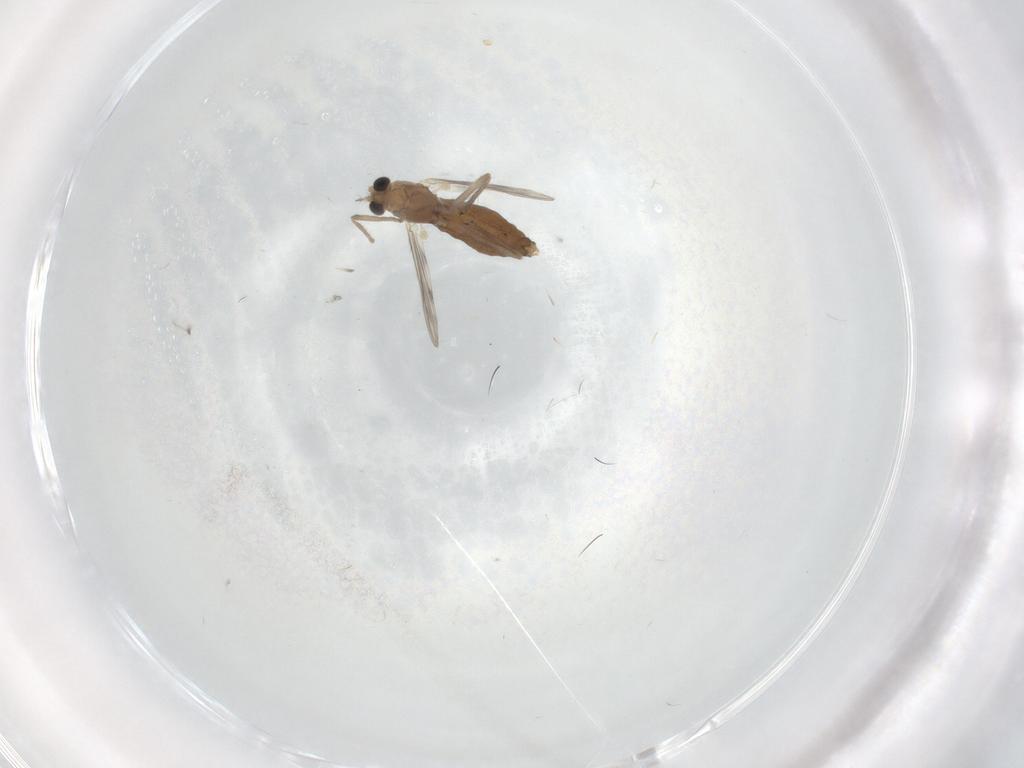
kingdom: Animalia
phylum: Arthropoda
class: Insecta
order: Diptera
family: Chironomidae
